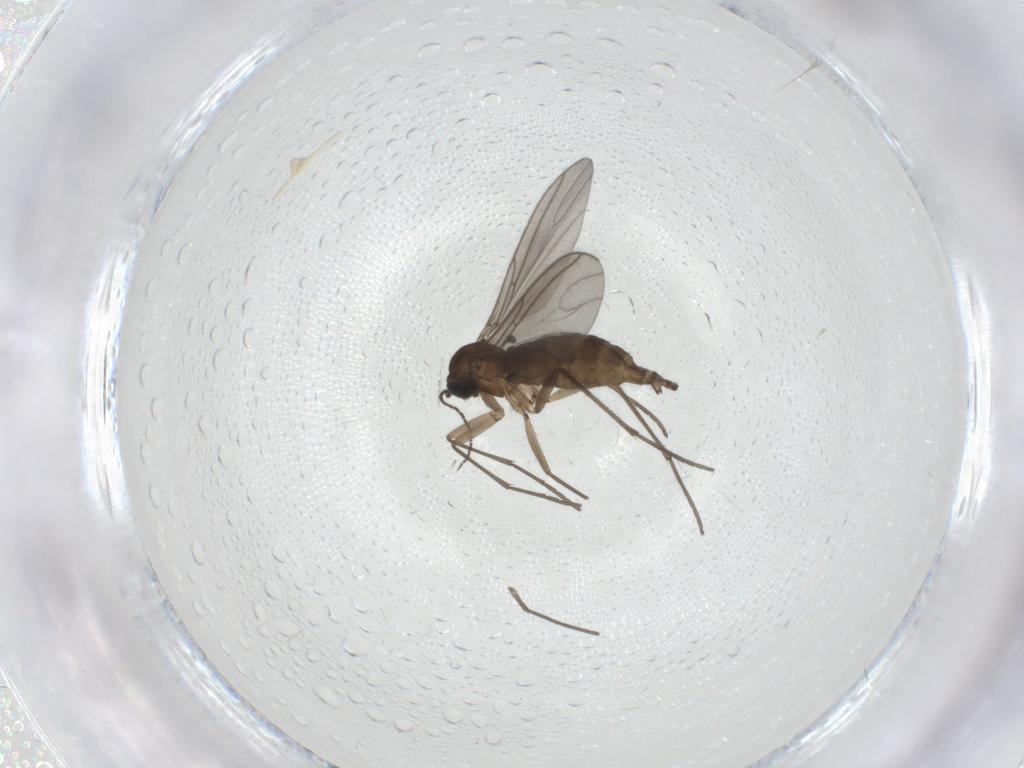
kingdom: Animalia
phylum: Arthropoda
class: Insecta
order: Diptera
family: Sciaridae
